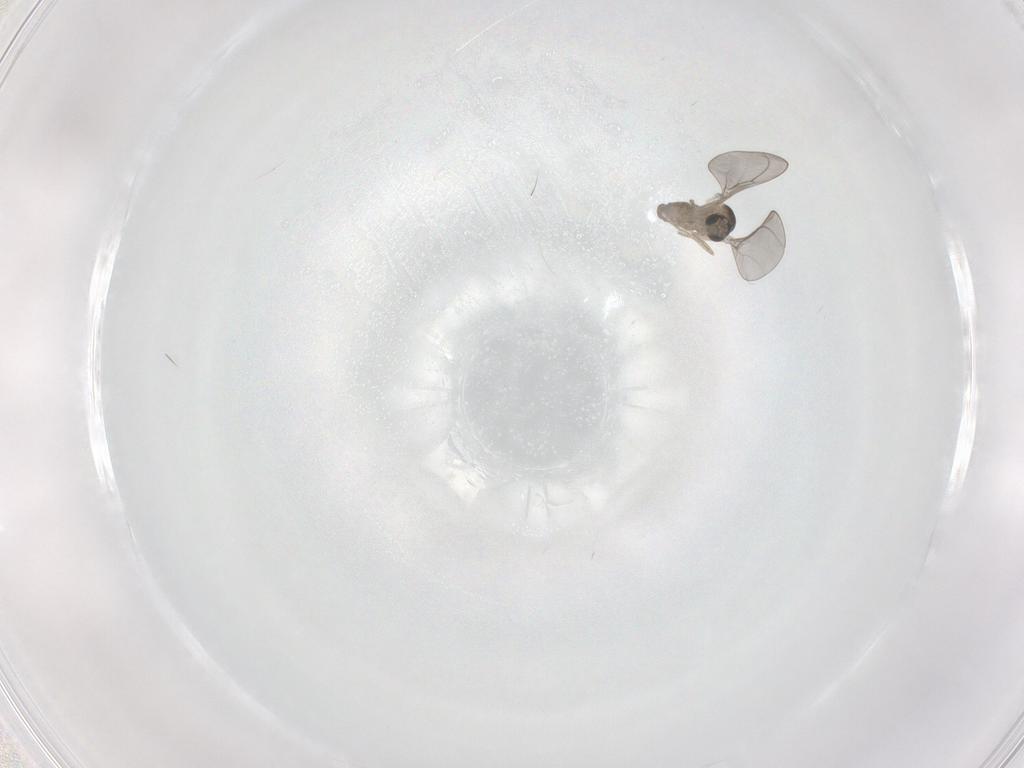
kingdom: Animalia
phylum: Arthropoda
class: Insecta
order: Diptera
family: Cecidomyiidae
